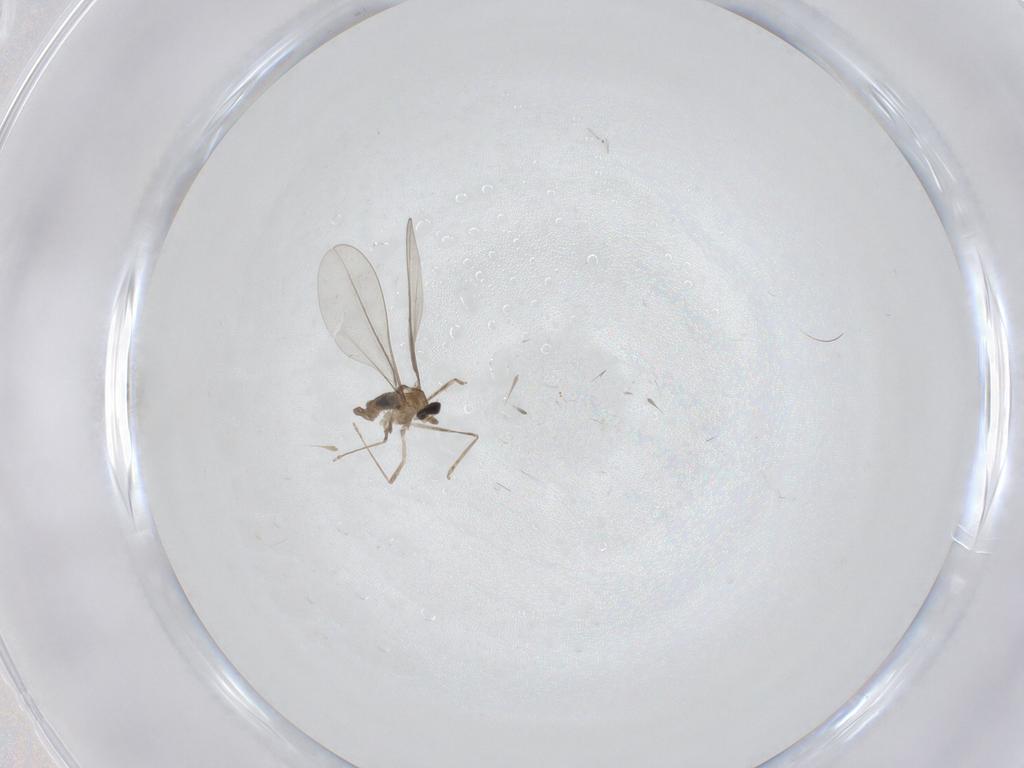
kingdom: Animalia
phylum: Arthropoda
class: Insecta
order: Diptera
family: Cecidomyiidae
